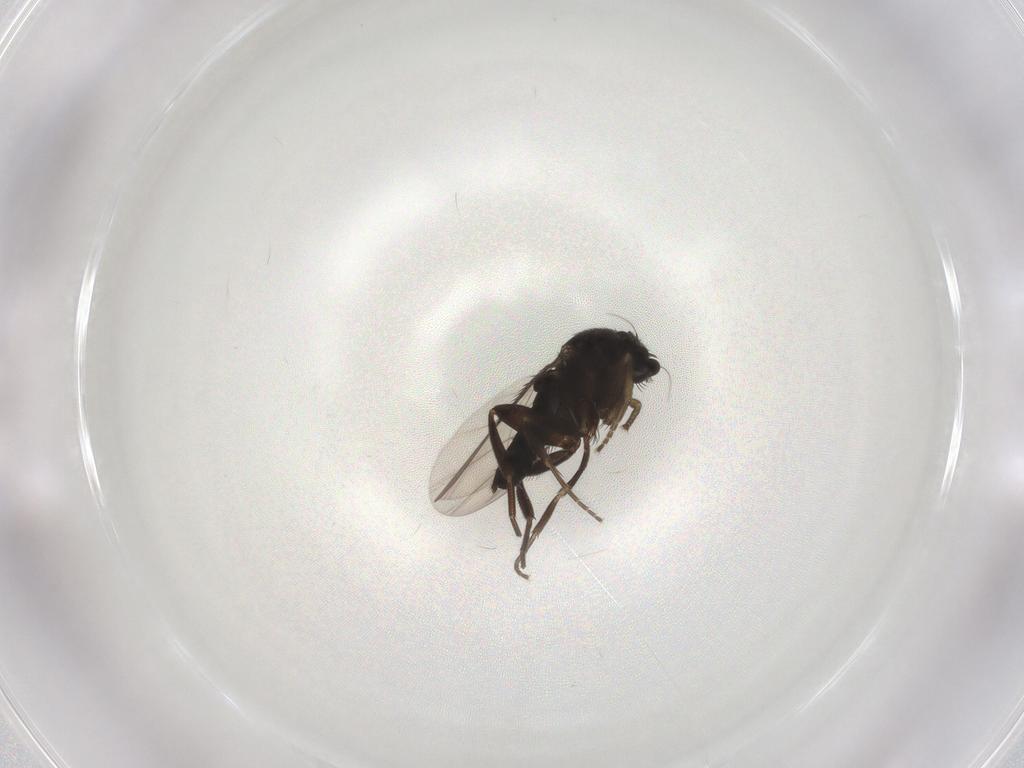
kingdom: Animalia
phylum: Arthropoda
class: Insecta
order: Diptera
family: Phoridae
